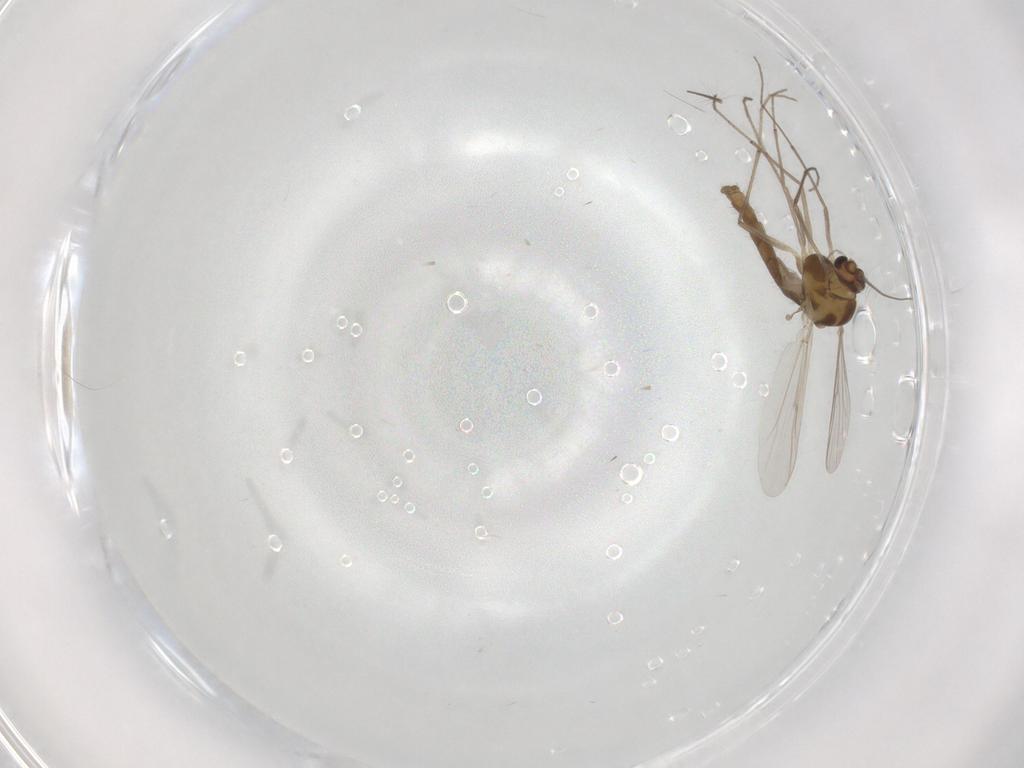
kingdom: Animalia
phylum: Arthropoda
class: Insecta
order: Diptera
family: Chironomidae
